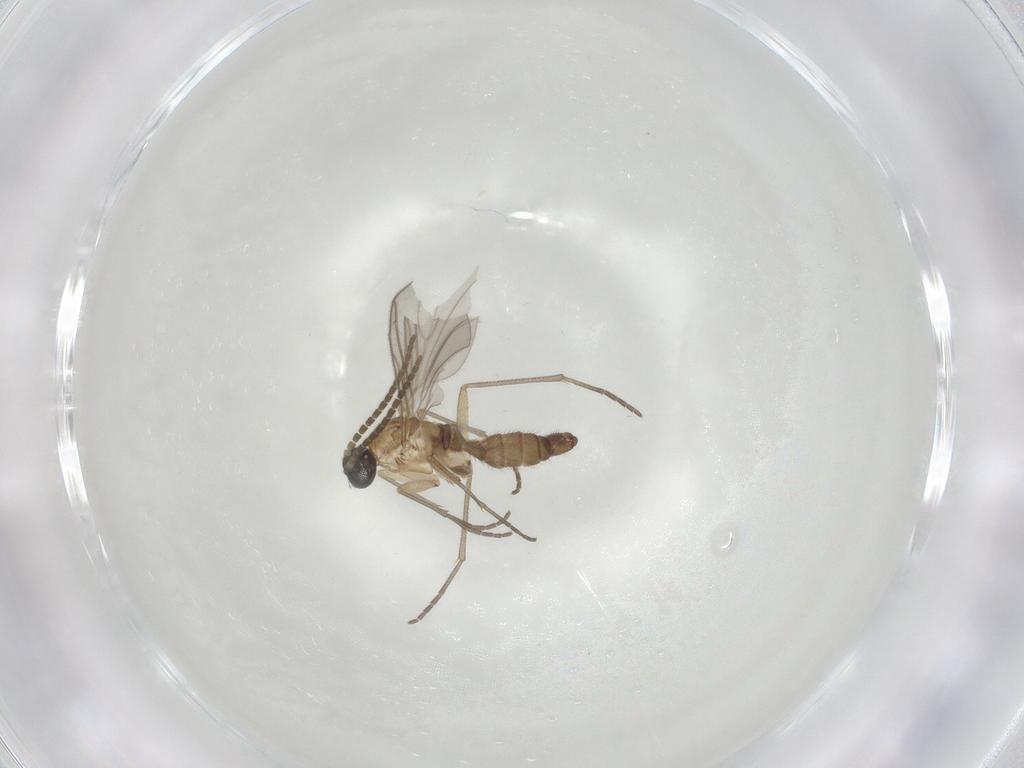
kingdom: Animalia
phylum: Arthropoda
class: Insecta
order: Diptera
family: Sciaridae
